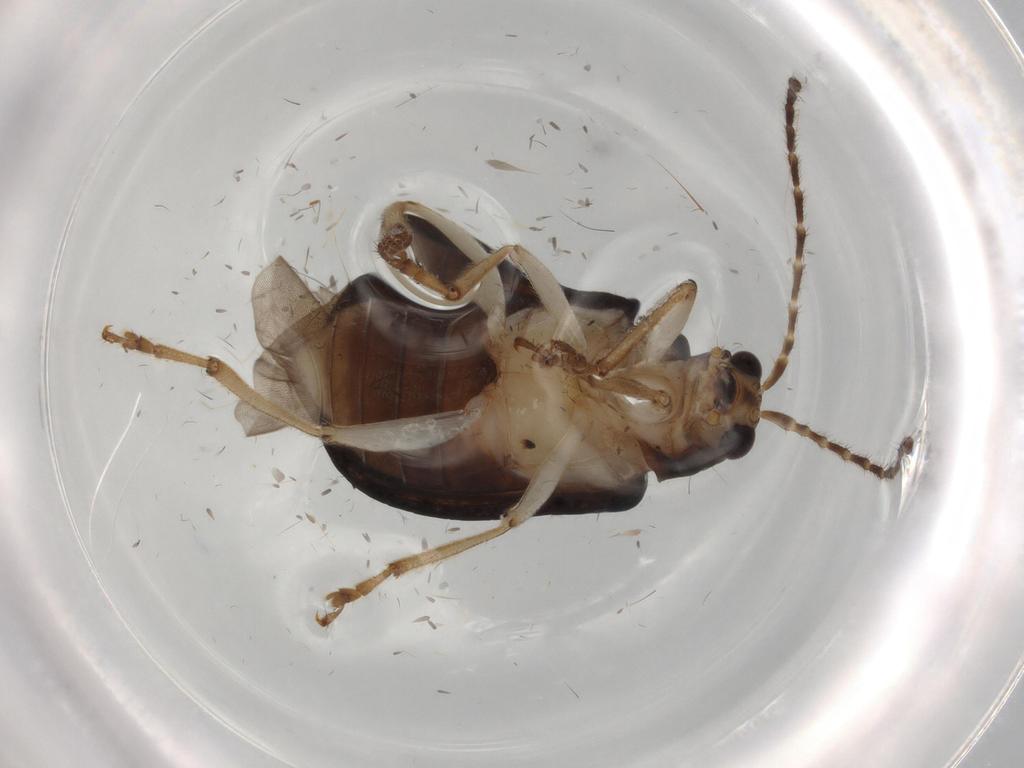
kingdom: Animalia
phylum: Arthropoda
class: Insecta
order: Coleoptera
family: Chrysomelidae
